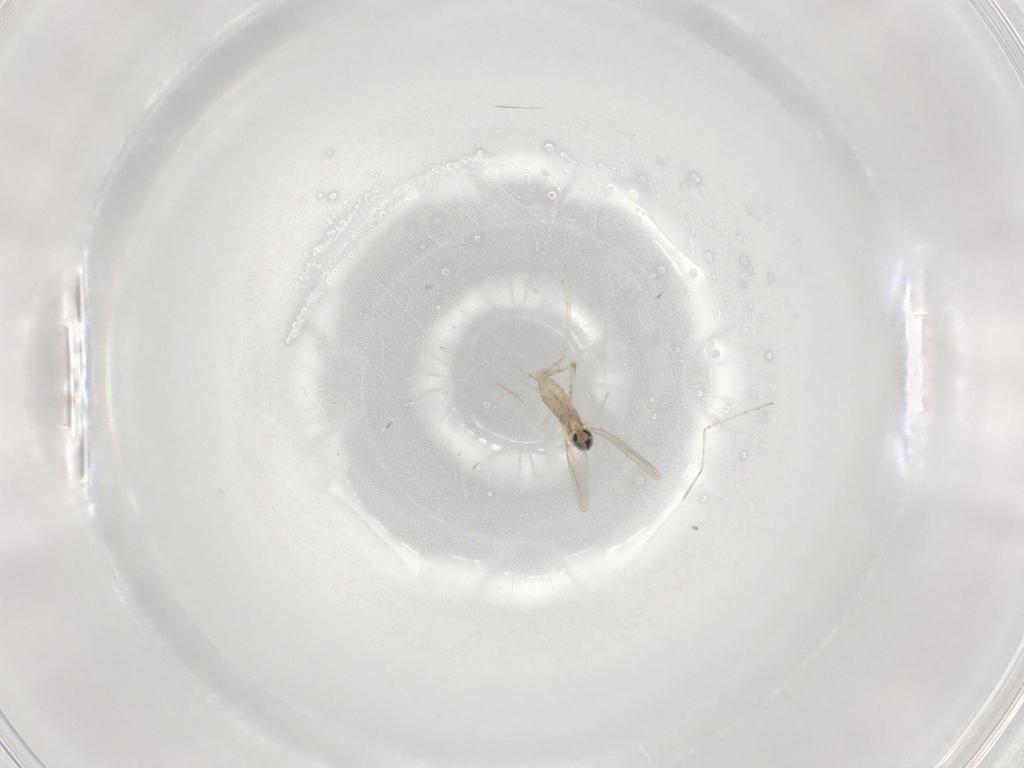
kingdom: Animalia
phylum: Arthropoda
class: Insecta
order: Diptera
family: Cecidomyiidae
